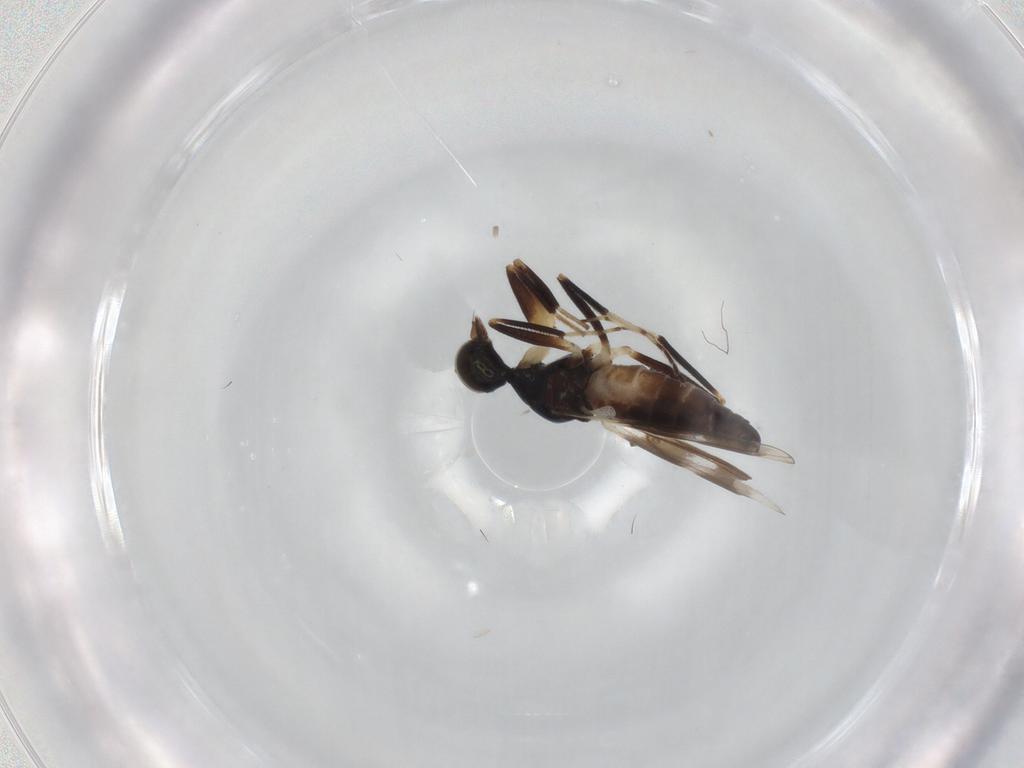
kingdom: Animalia
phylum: Arthropoda
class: Insecta
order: Diptera
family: Hybotidae
